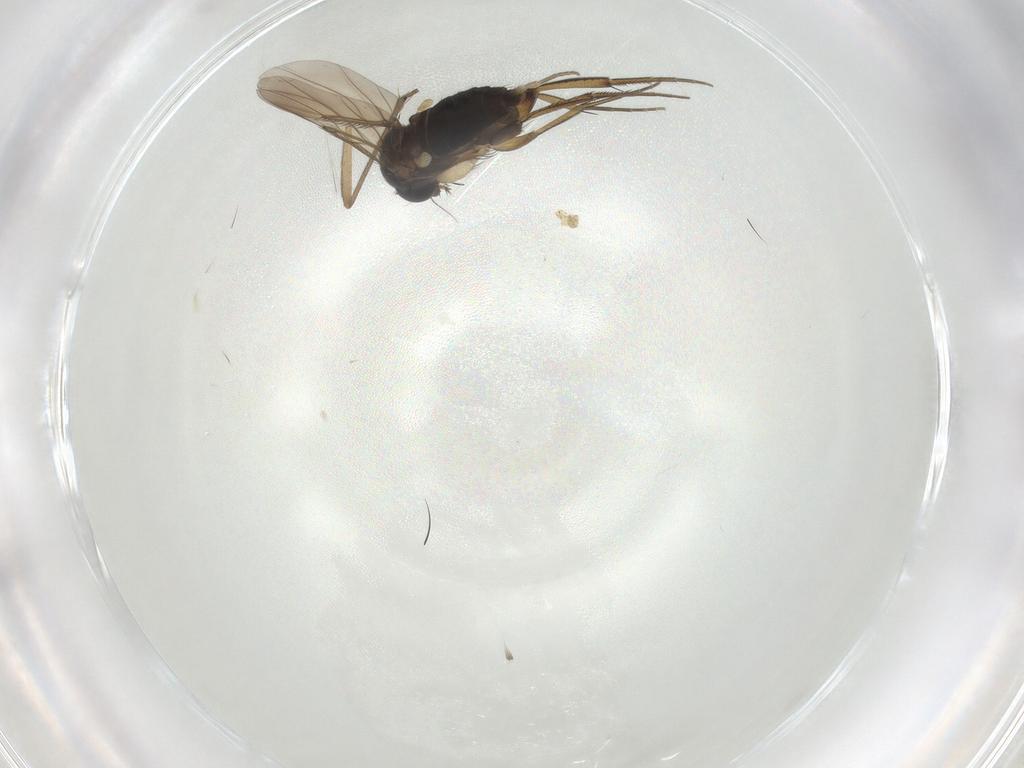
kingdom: Animalia
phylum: Arthropoda
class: Insecta
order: Diptera
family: Phoridae
